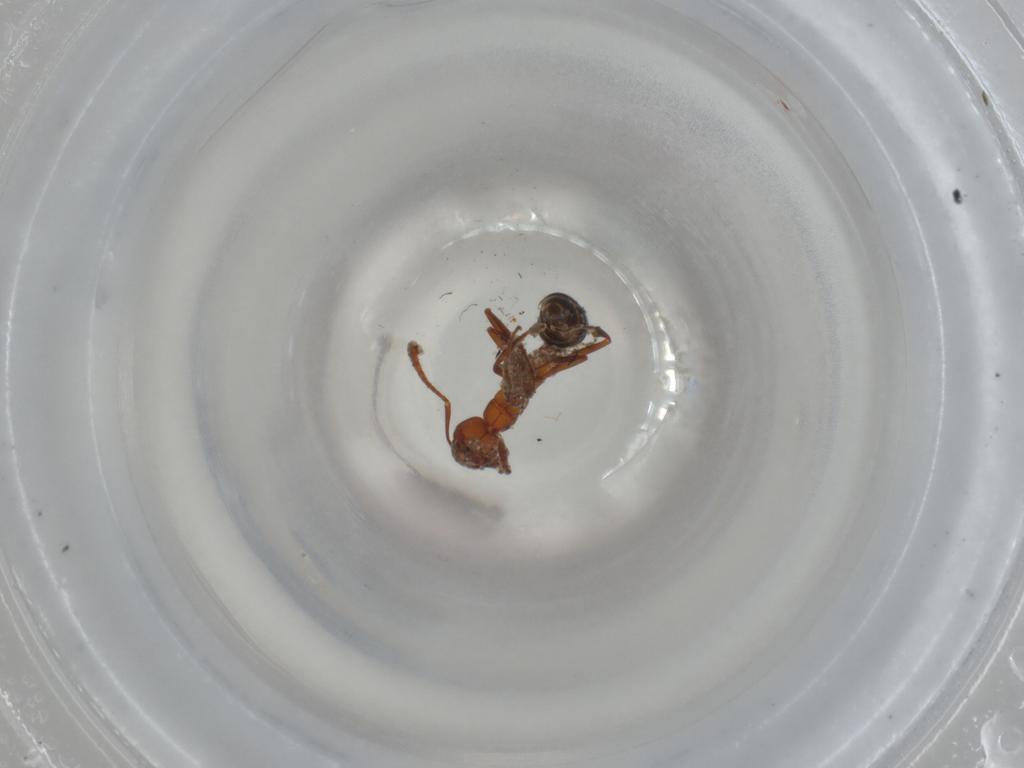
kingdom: Animalia
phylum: Arthropoda
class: Insecta
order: Hymenoptera
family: Formicidae
